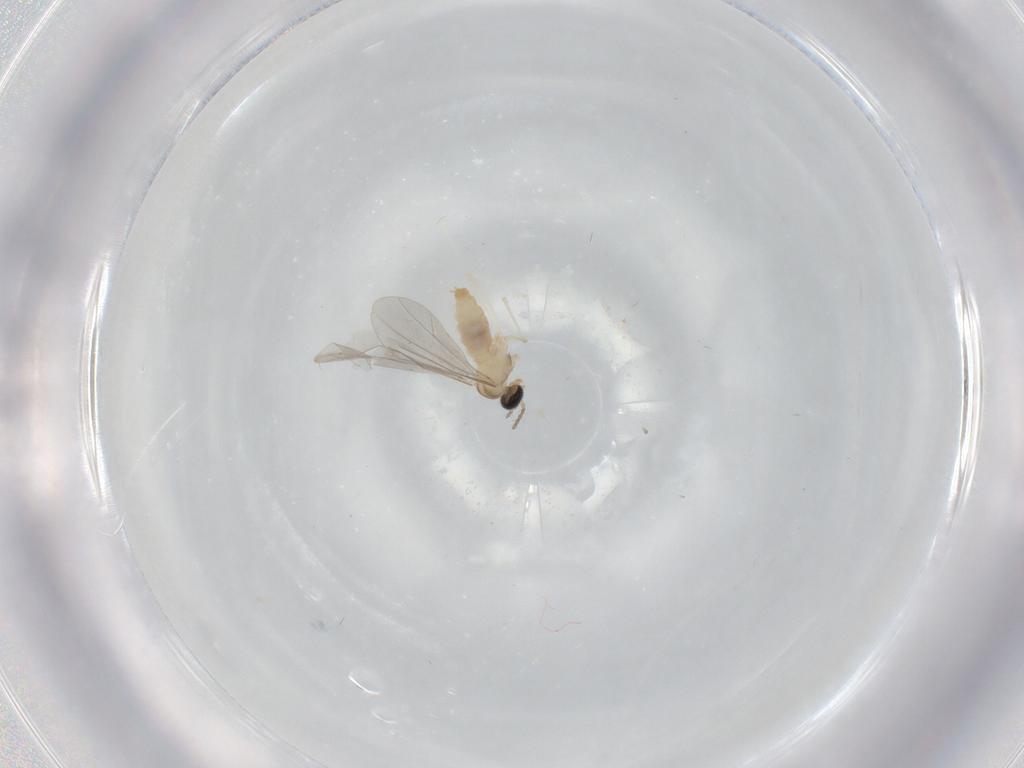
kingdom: Animalia
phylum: Arthropoda
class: Insecta
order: Diptera
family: Cecidomyiidae
